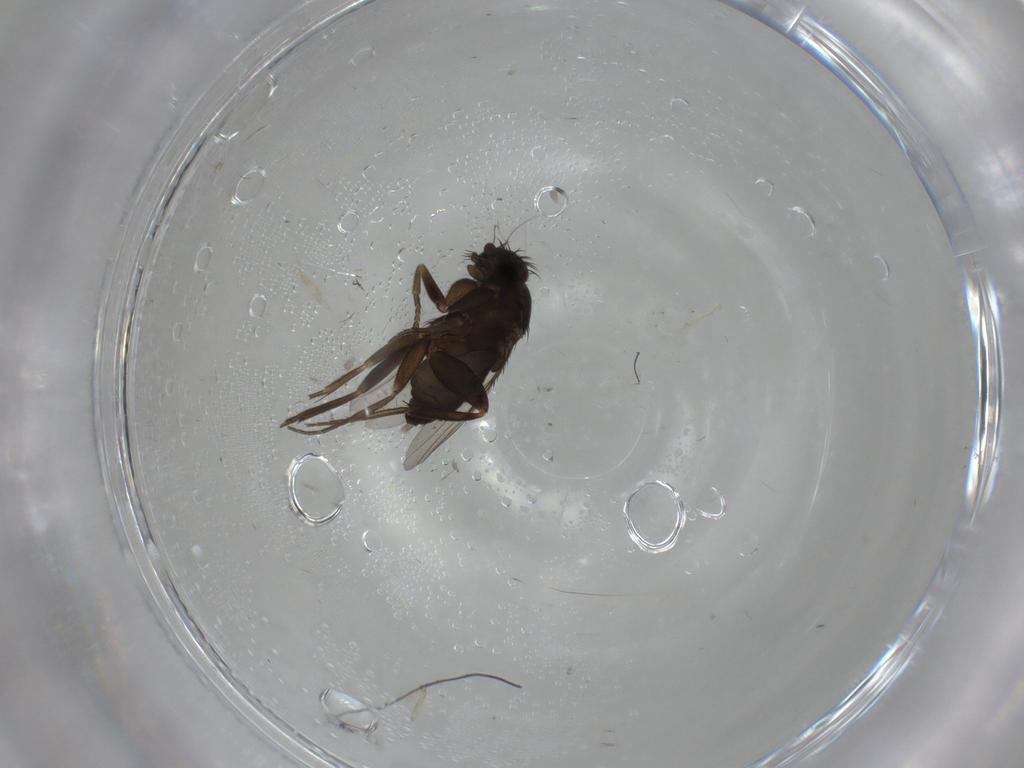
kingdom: Animalia
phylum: Arthropoda
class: Insecta
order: Diptera
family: Phoridae
